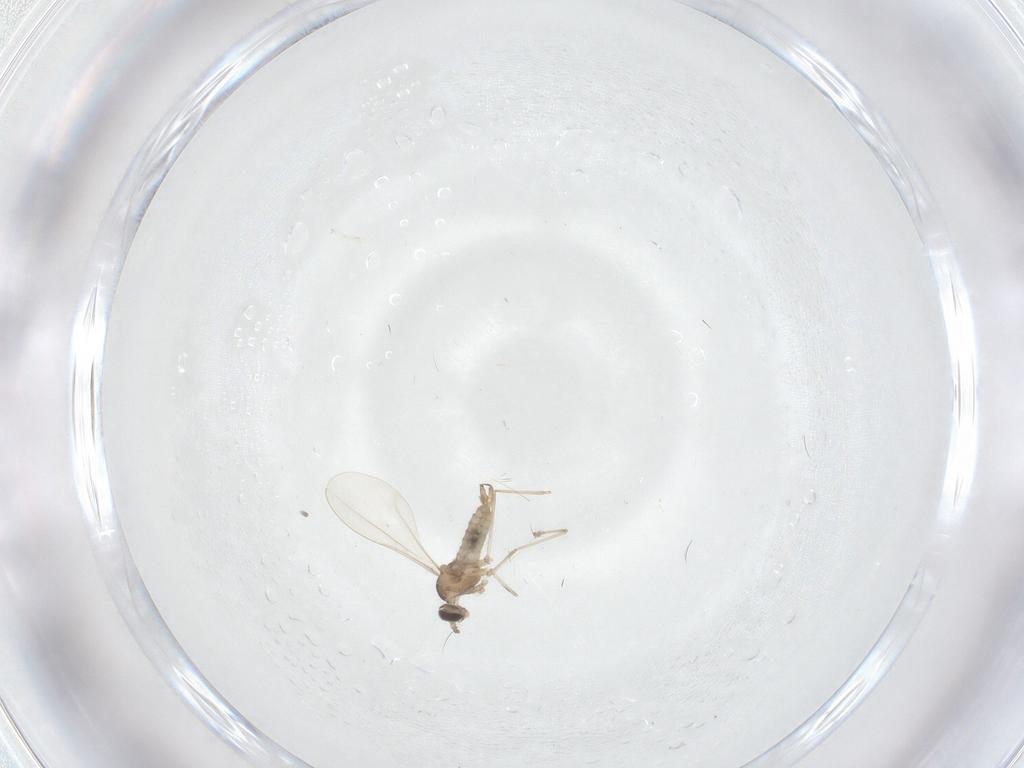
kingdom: Animalia
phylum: Arthropoda
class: Insecta
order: Diptera
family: Cecidomyiidae
